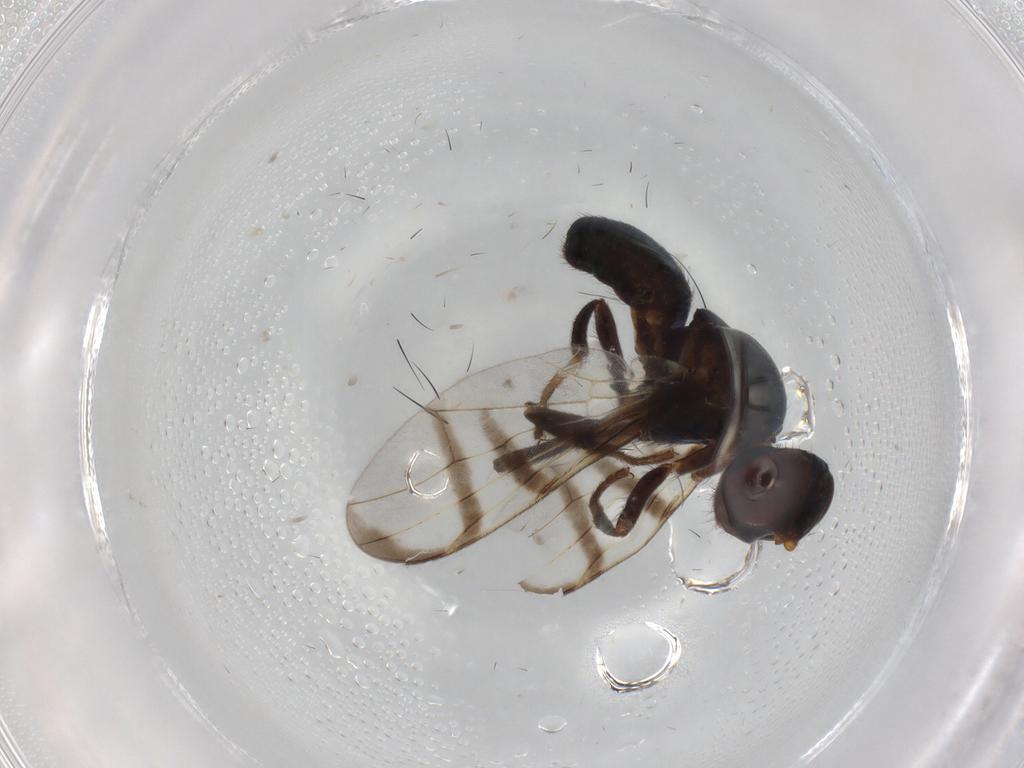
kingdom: Animalia
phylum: Arthropoda
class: Insecta
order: Diptera
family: Platystomatidae
